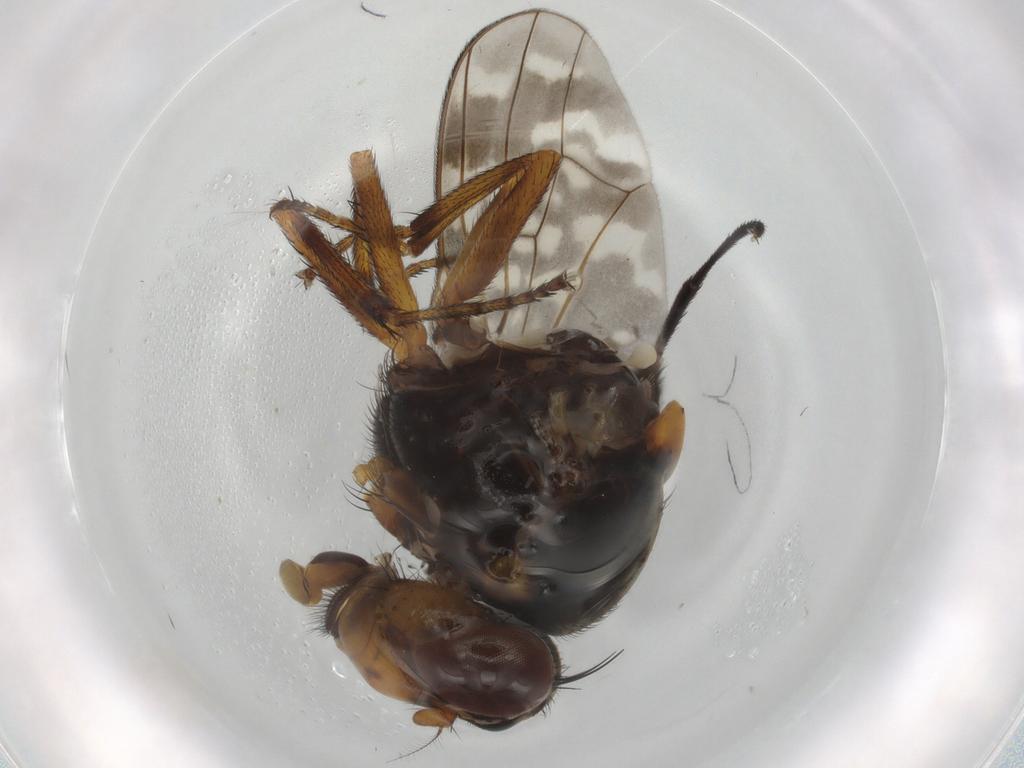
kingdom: Animalia
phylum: Arthropoda
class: Insecta
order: Diptera
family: Dolichopodidae
